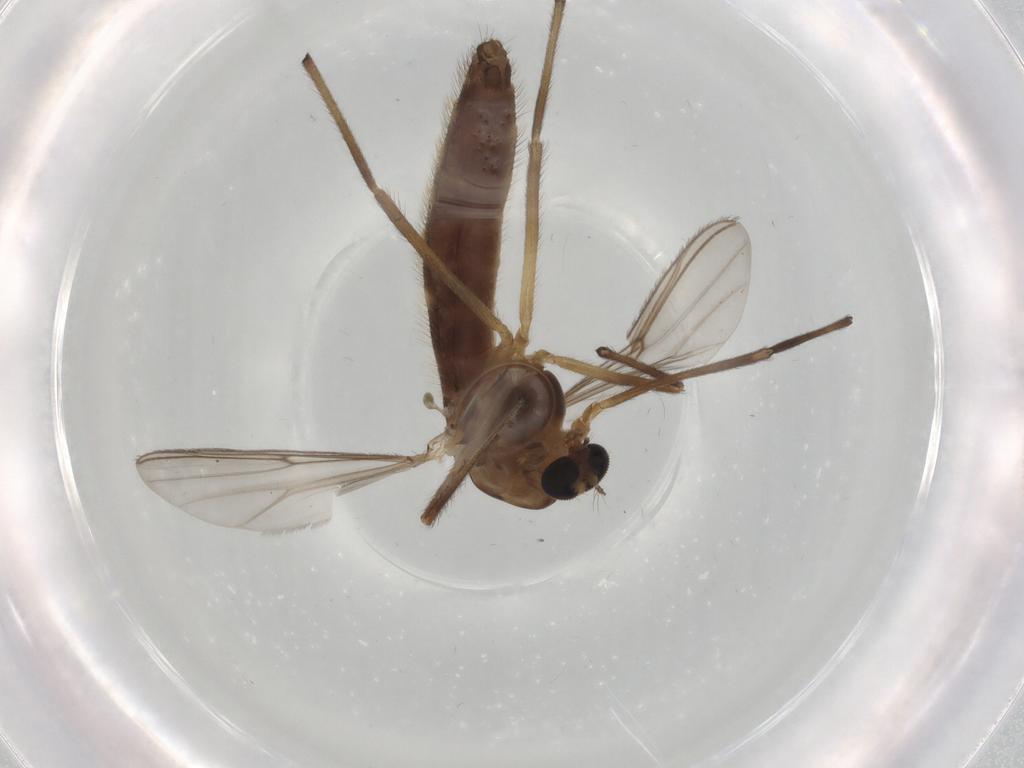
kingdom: Animalia
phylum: Arthropoda
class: Insecta
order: Diptera
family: Chironomidae
